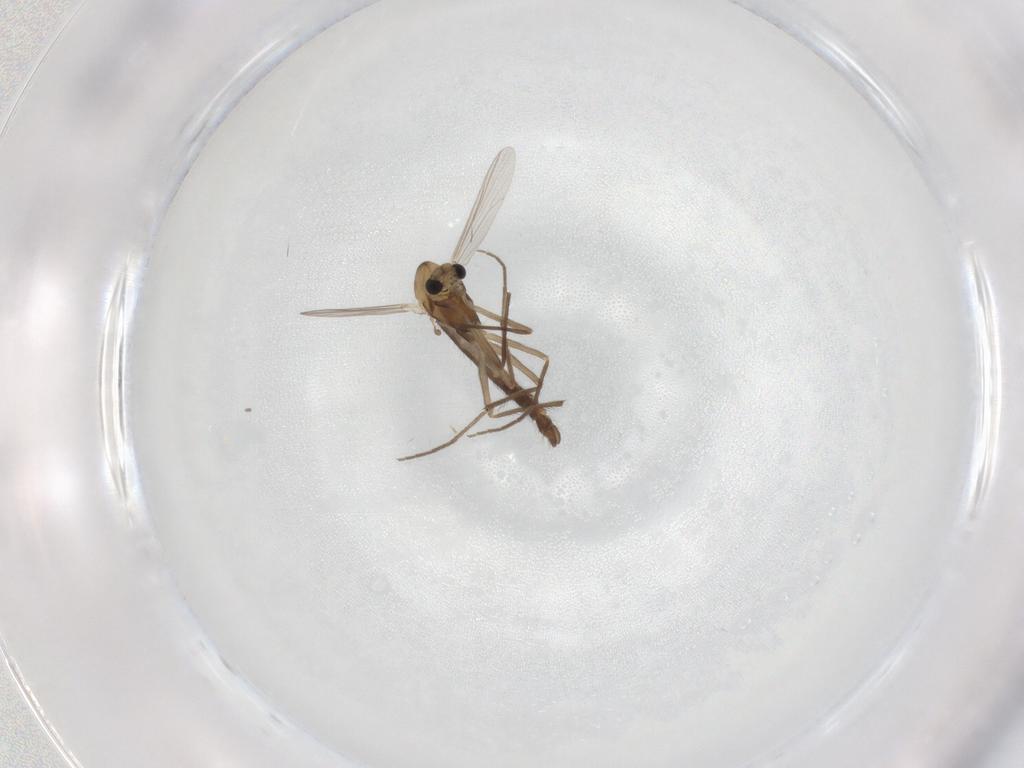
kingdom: Animalia
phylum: Arthropoda
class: Insecta
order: Diptera
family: Chironomidae
